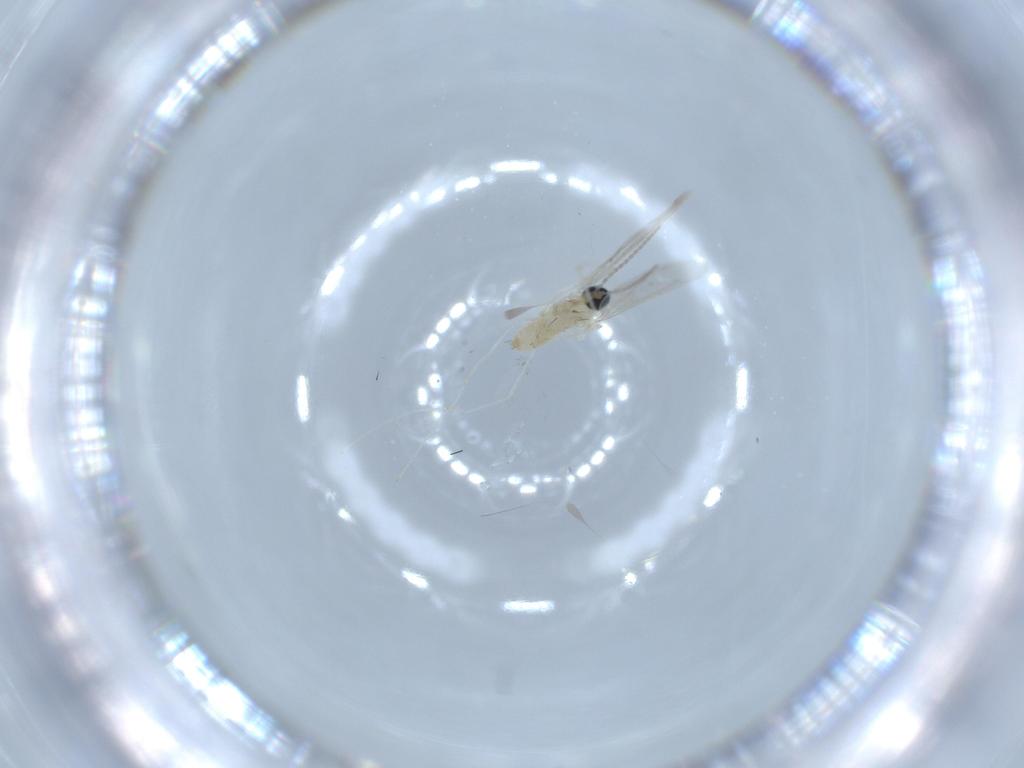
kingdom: Animalia
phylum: Arthropoda
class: Insecta
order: Diptera
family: Cecidomyiidae
